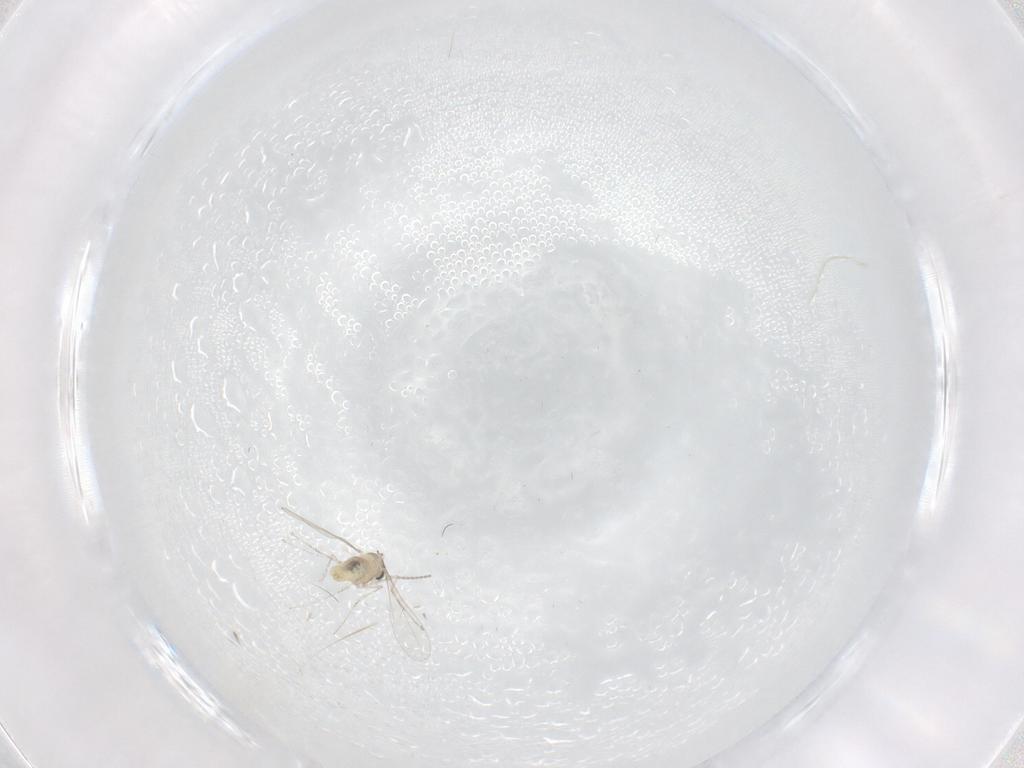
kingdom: Animalia
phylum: Arthropoda
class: Insecta
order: Diptera
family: Cecidomyiidae
